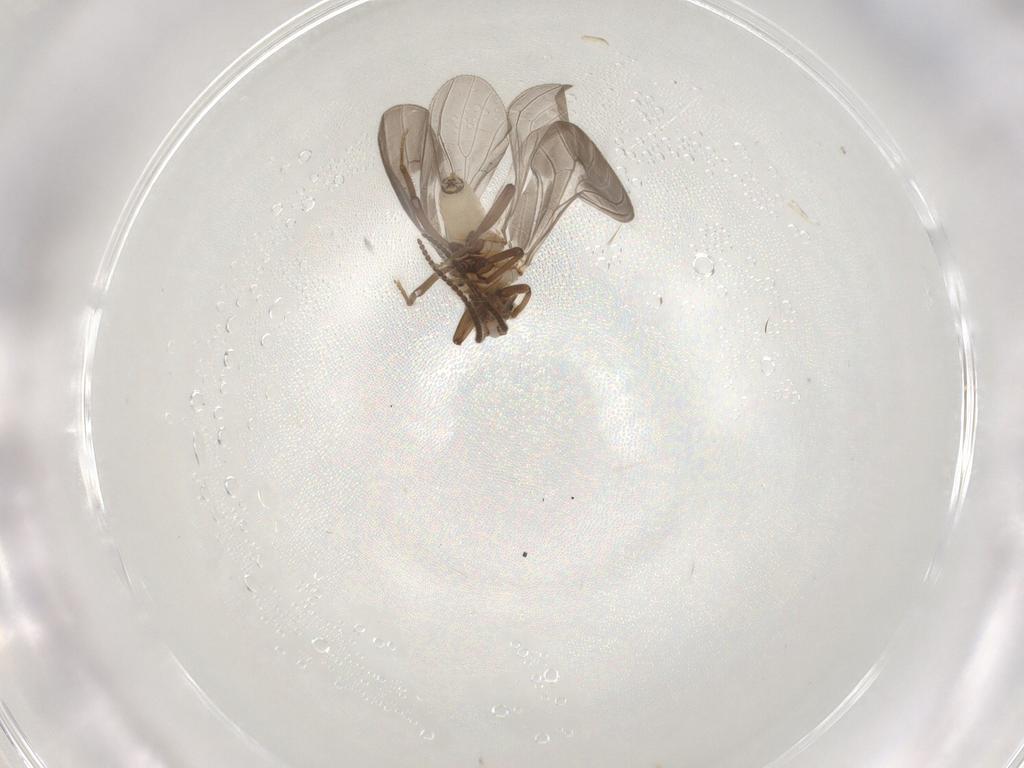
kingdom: Animalia
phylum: Arthropoda
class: Insecta
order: Neuroptera
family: Coniopterygidae
